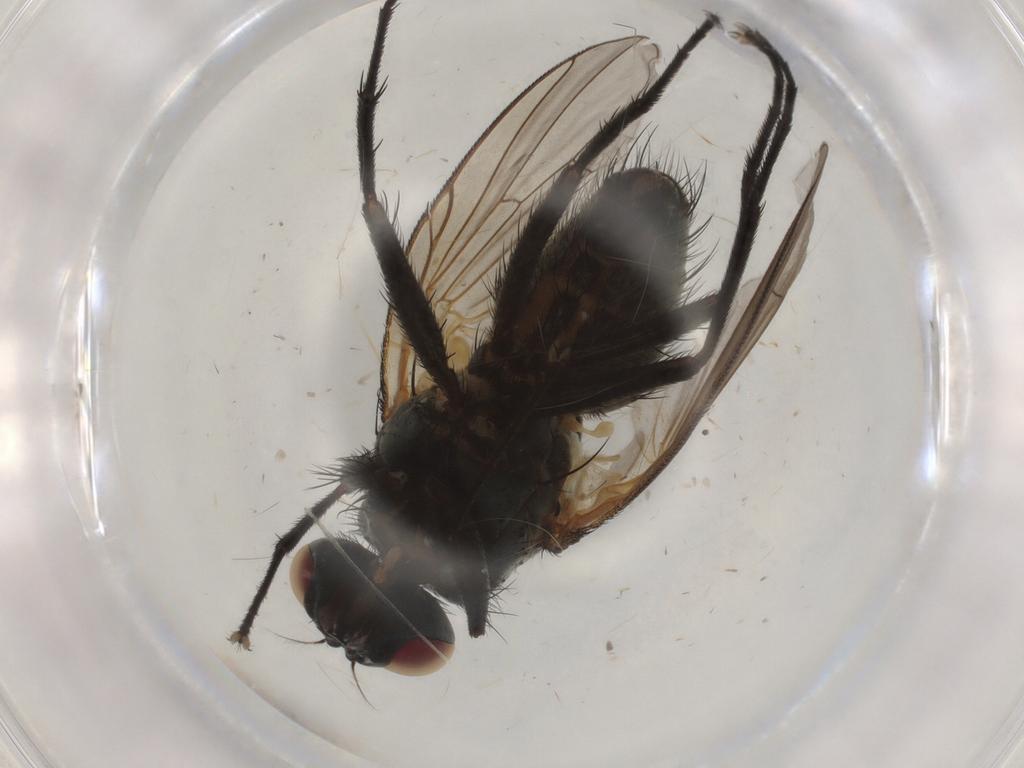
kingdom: Animalia
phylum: Arthropoda
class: Insecta
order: Diptera
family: Muscidae
